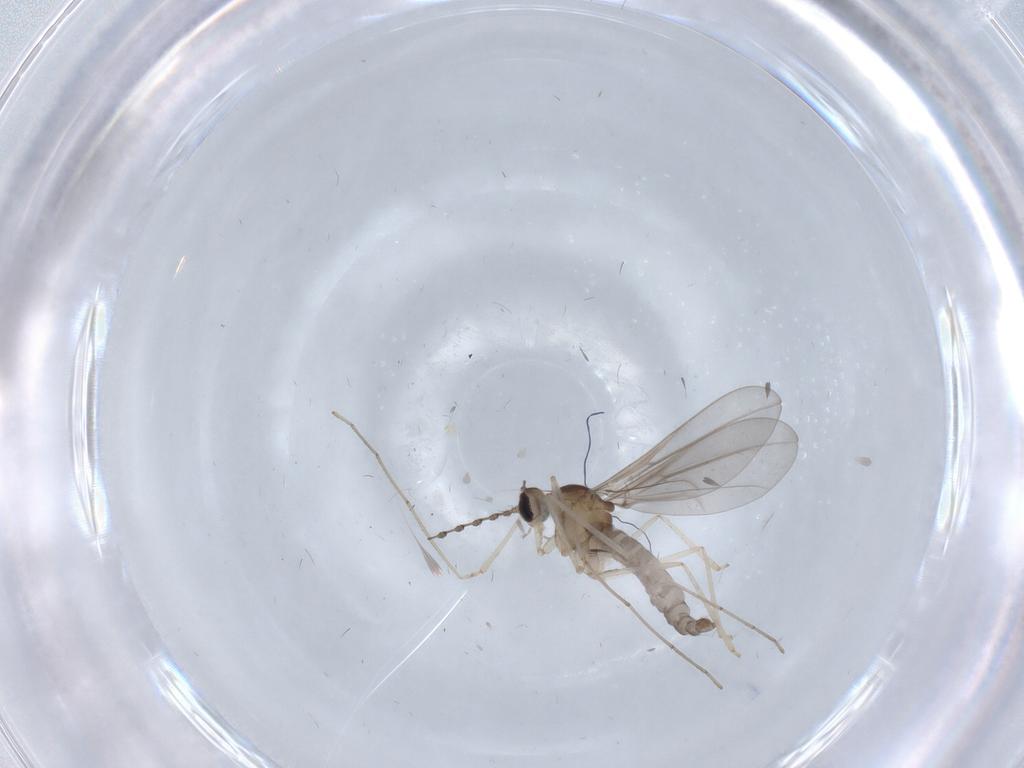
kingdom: Animalia
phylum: Arthropoda
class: Insecta
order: Diptera
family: Cecidomyiidae
